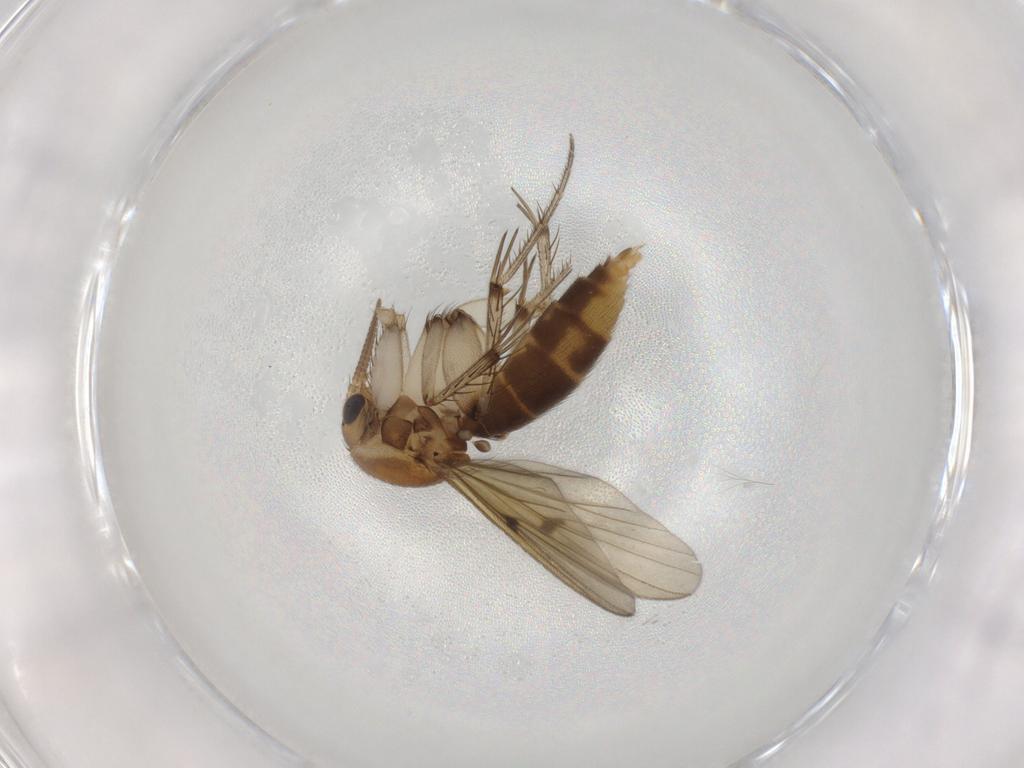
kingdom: Animalia
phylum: Arthropoda
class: Insecta
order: Diptera
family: Mycetophilidae
